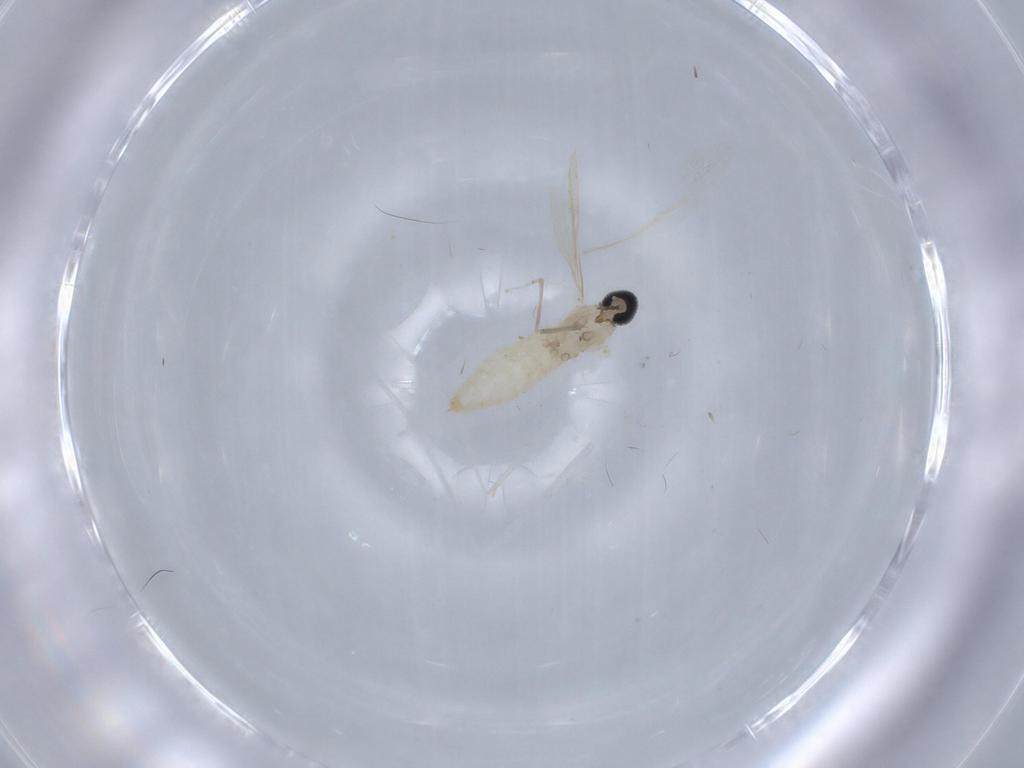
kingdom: Animalia
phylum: Arthropoda
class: Insecta
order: Diptera
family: Cecidomyiidae
